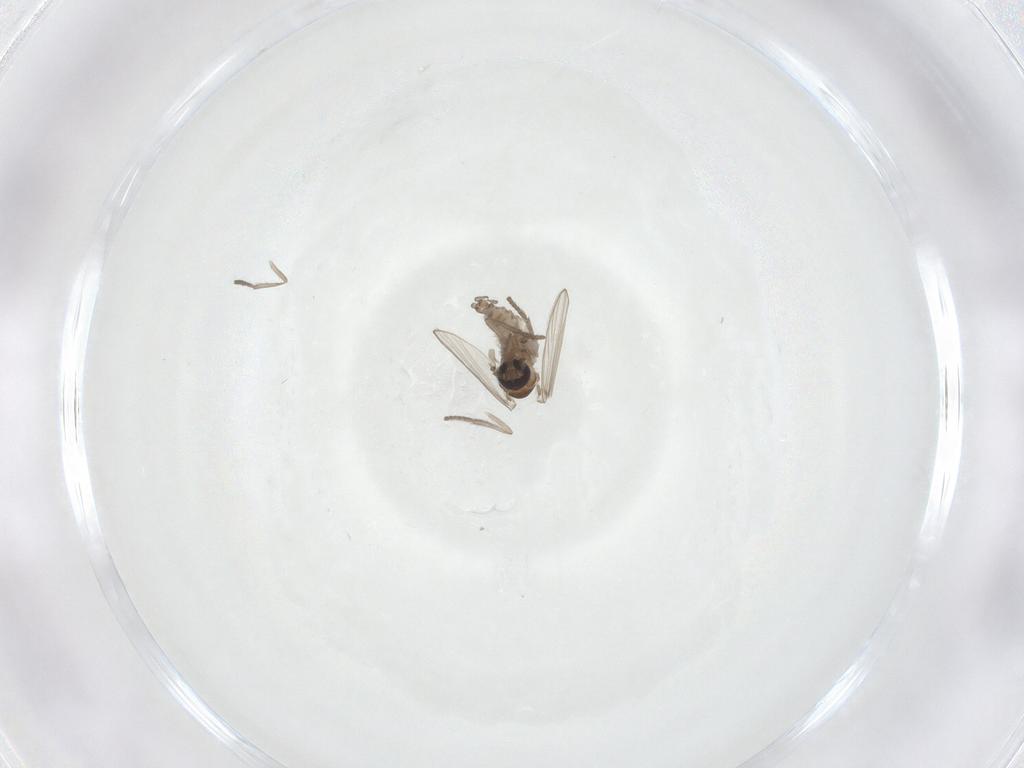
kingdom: Animalia
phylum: Arthropoda
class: Insecta
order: Diptera
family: Psychodidae
